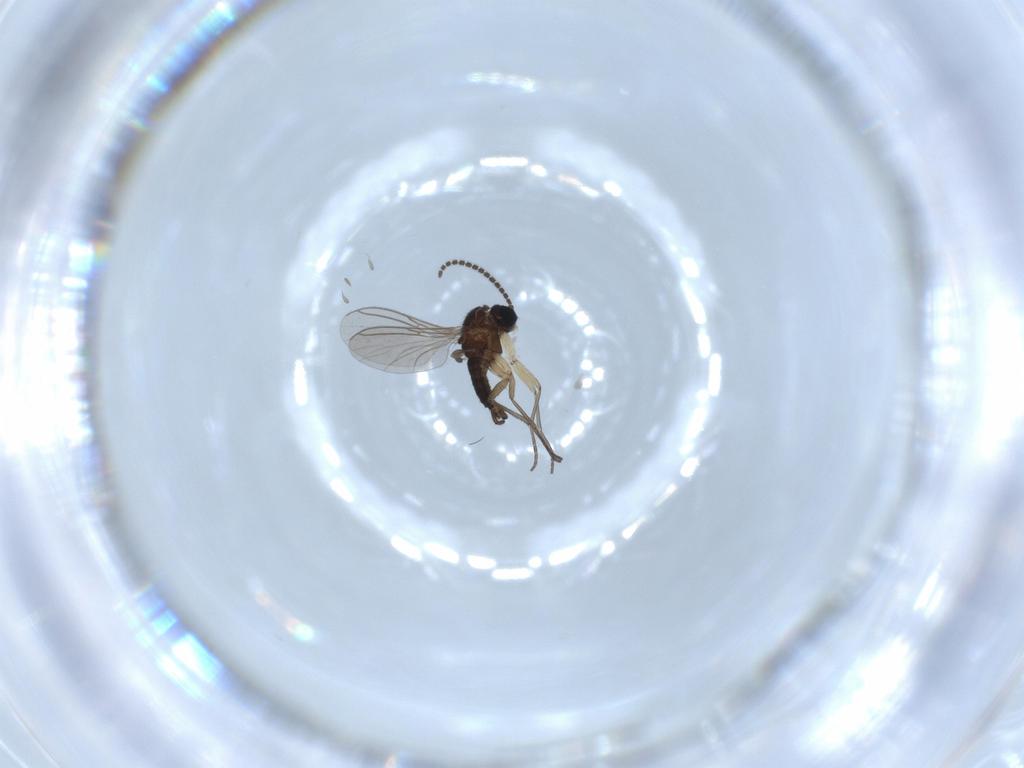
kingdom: Animalia
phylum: Arthropoda
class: Insecta
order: Diptera
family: Sciaridae
